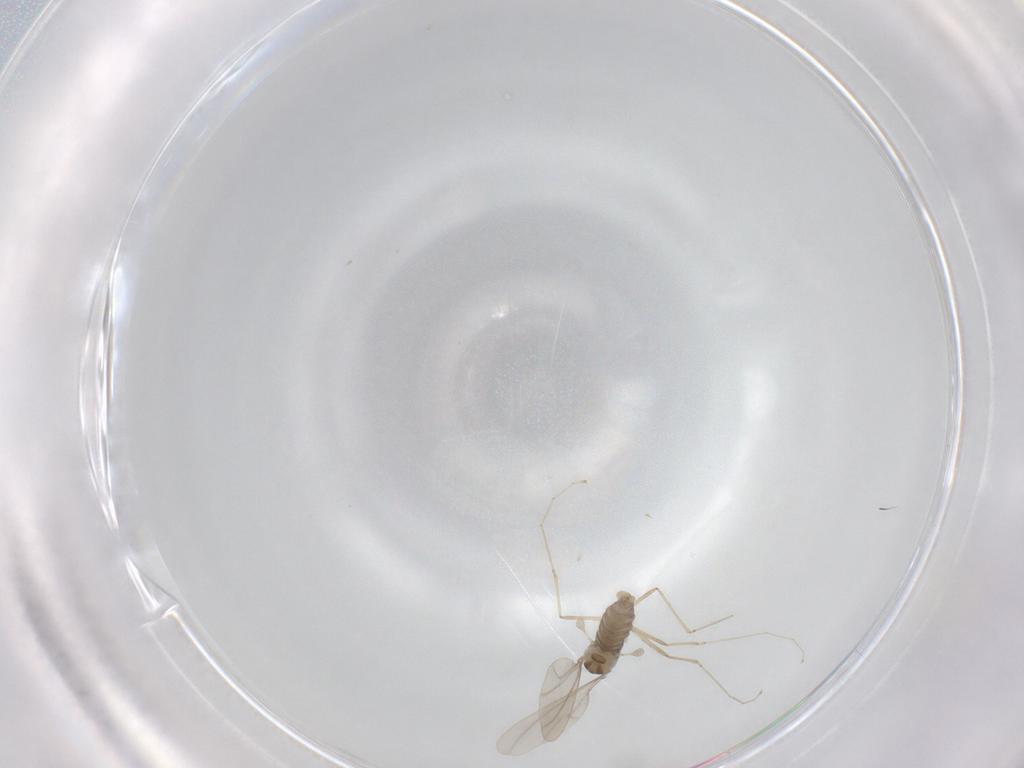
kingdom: Animalia
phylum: Arthropoda
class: Insecta
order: Diptera
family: Cecidomyiidae
